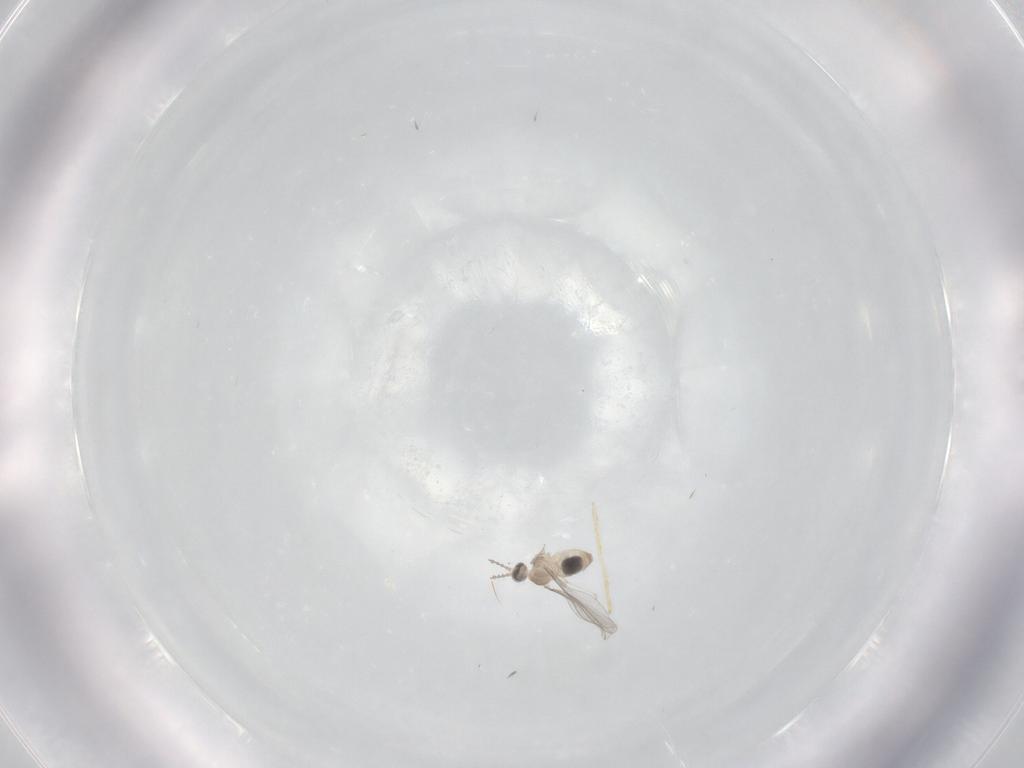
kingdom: Animalia
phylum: Arthropoda
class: Insecta
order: Diptera
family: Cecidomyiidae
